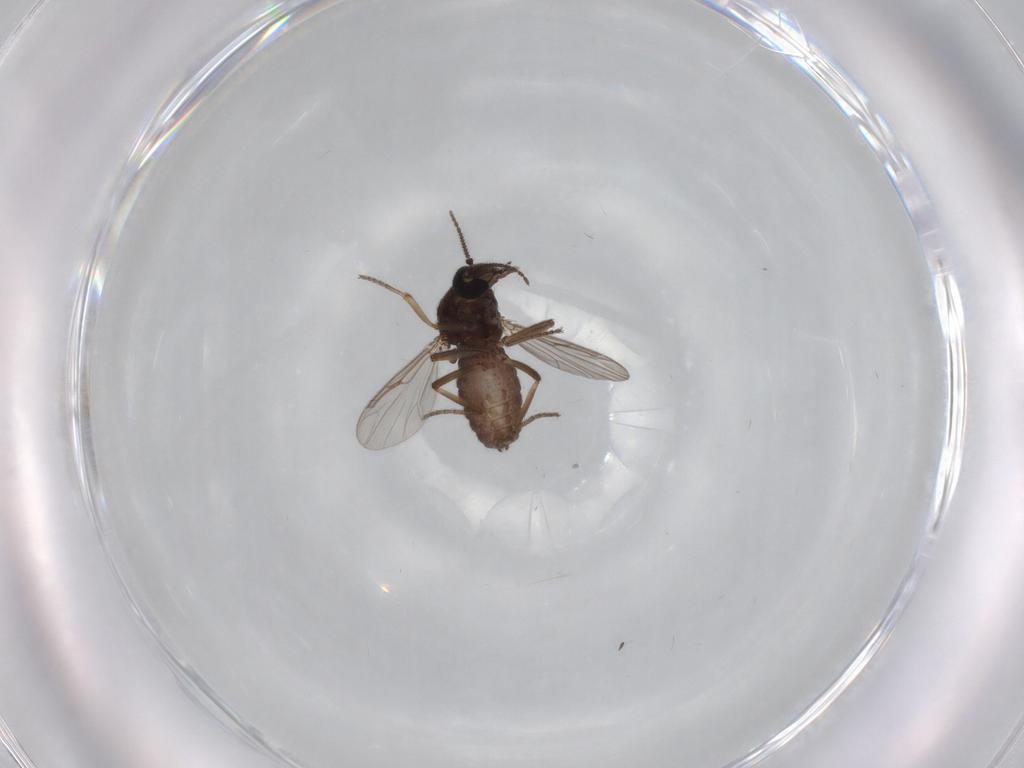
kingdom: Animalia
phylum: Arthropoda
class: Insecta
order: Diptera
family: Ceratopogonidae
